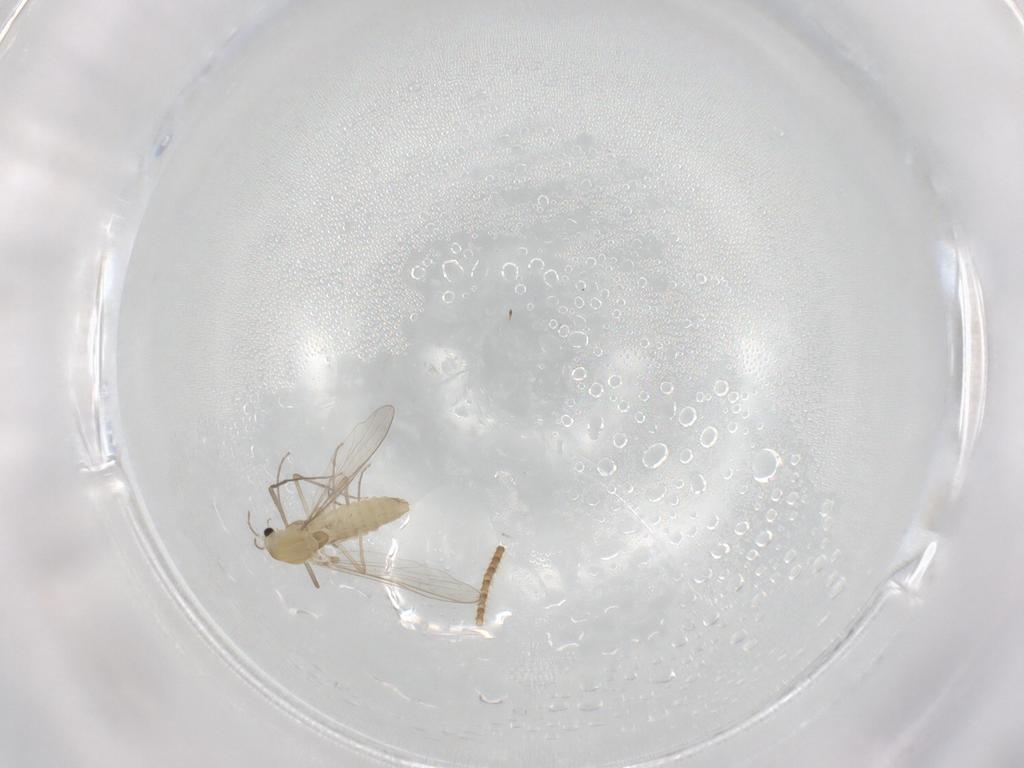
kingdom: Animalia
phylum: Arthropoda
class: Insecta
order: Diptera
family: Chironomidae
